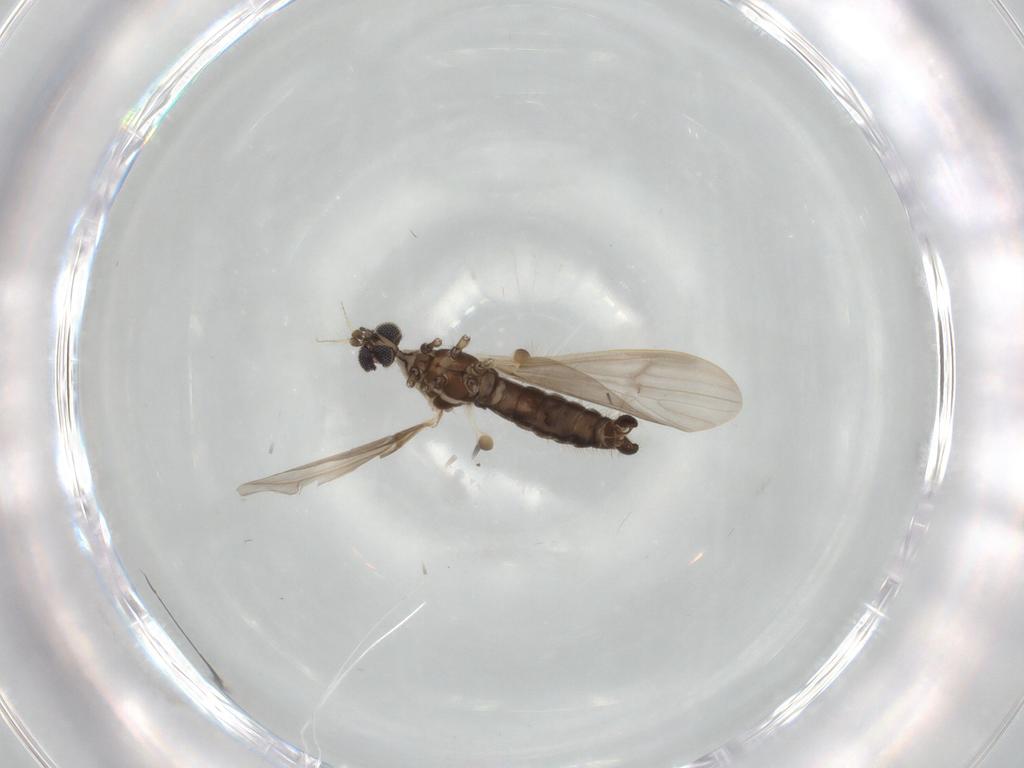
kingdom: Animalia
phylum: Arthropoda
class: Insecta
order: Diptera
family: Limoniidae
